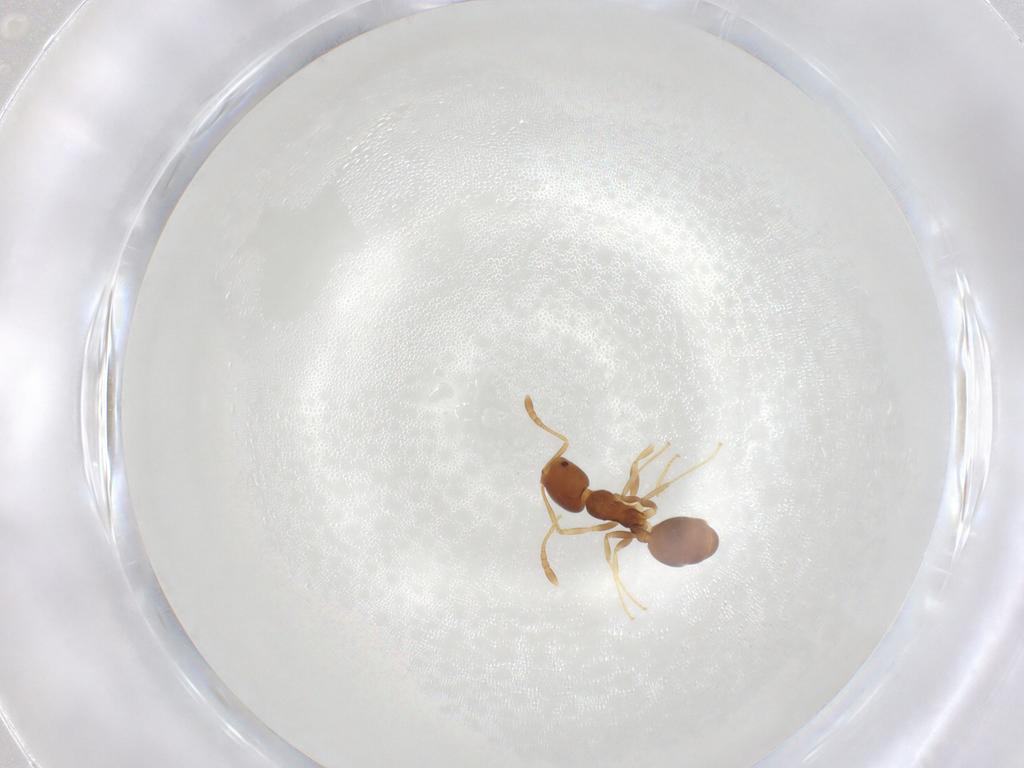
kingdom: Animalia
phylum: Arthropoda
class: Insecta
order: Hymenoptera
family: Formicidae
